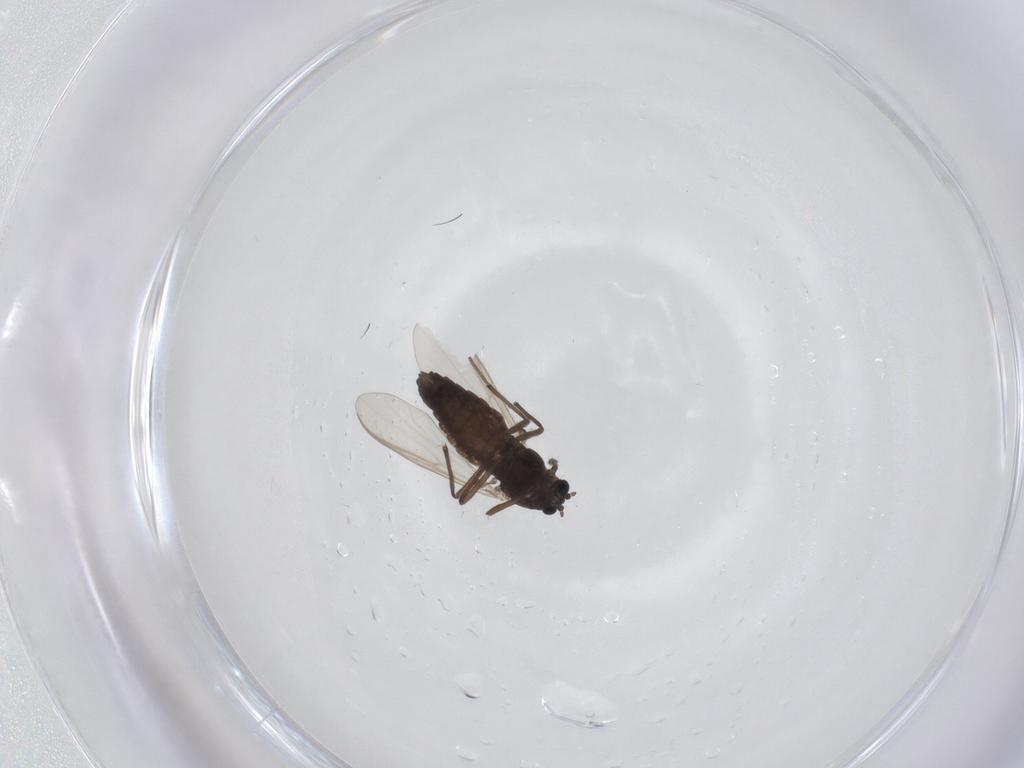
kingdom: Animalia
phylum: Arthropoda
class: Insecta
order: Diptera
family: Chironomidae
